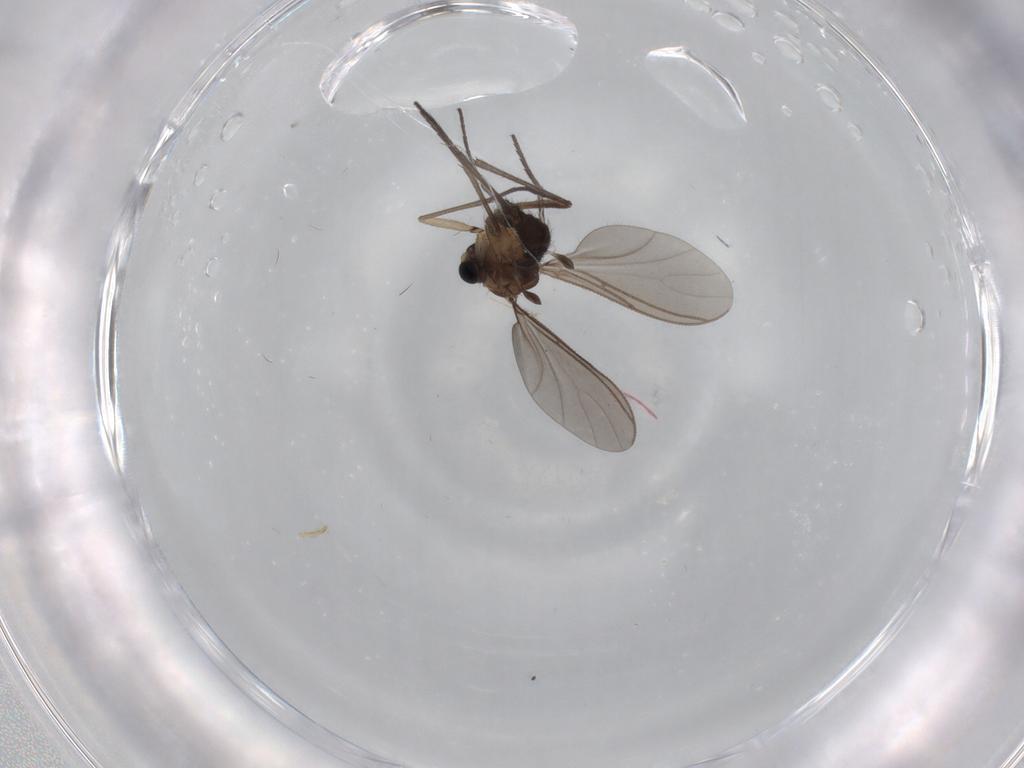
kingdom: Animalia
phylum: Arthropoda
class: Insecta
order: Diptera
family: Sciaridae
